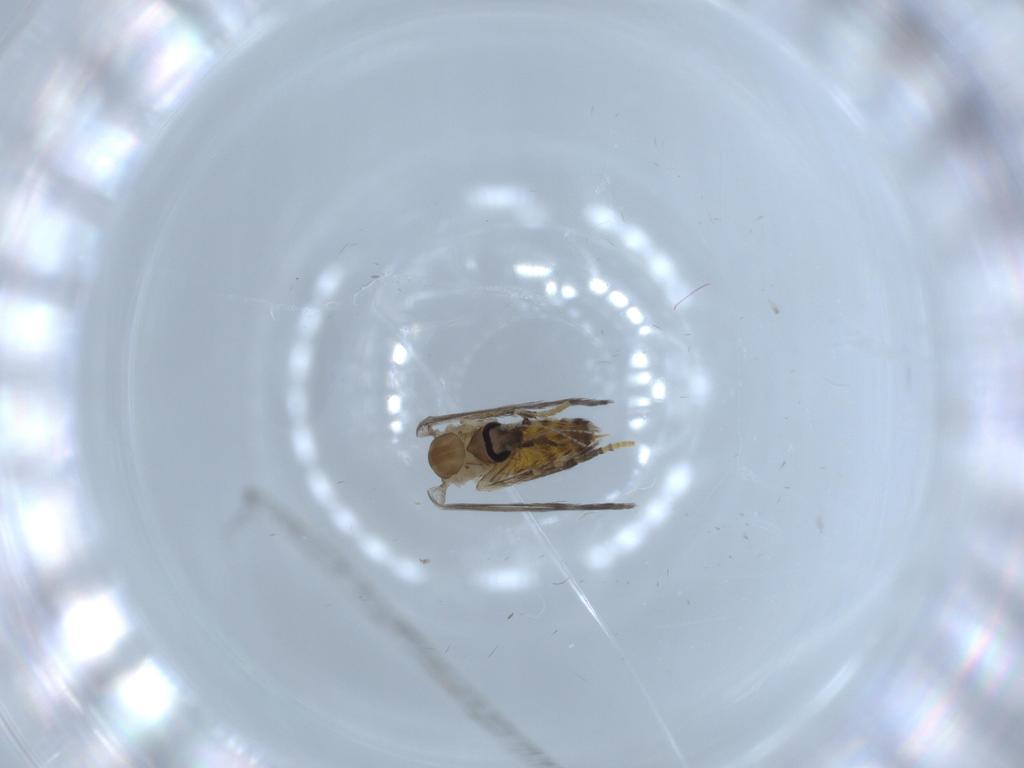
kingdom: Animalia
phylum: Arthropoda
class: Insecta
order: Diptera
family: Psychodidae
